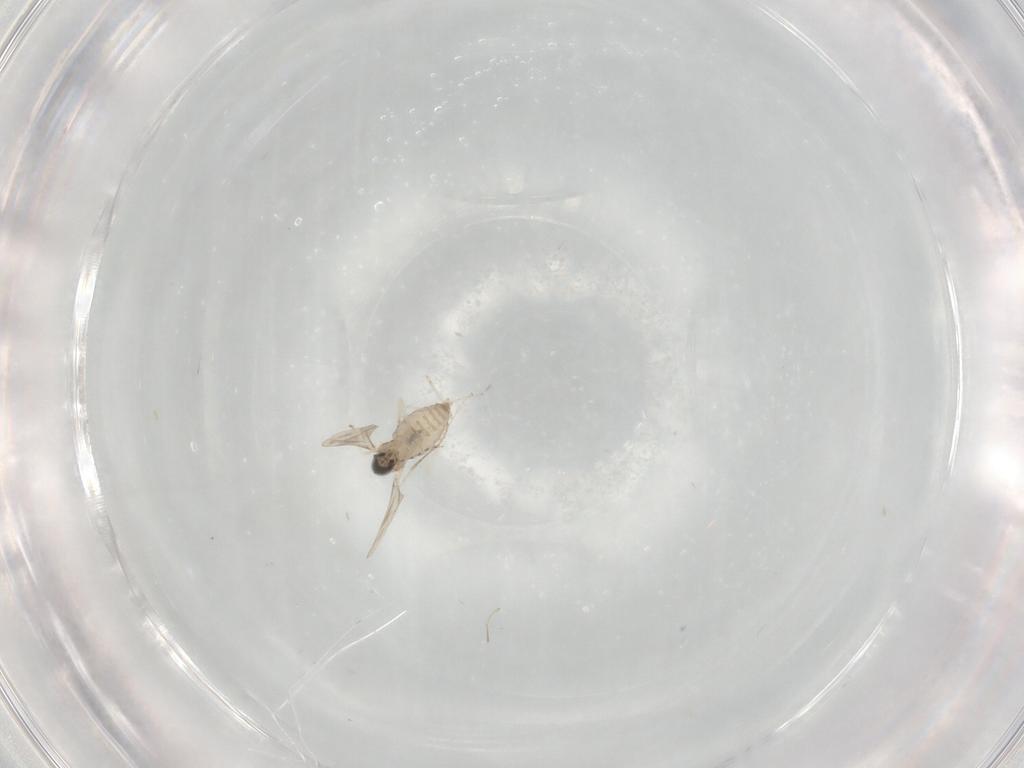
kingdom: Animalia
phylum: Arthropoda
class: Insecta
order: Diptera
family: Cecidomyiidae
